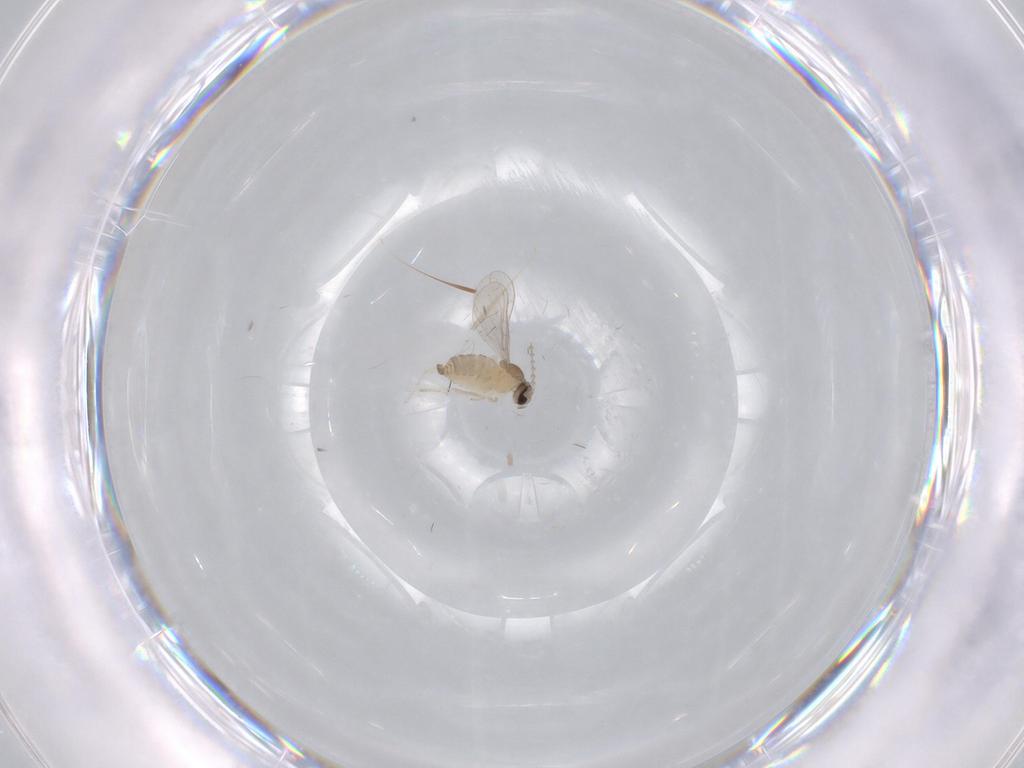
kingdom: Animalia
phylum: Arthropoda
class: Insecta
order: Diptera
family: Cecidomyiidae
